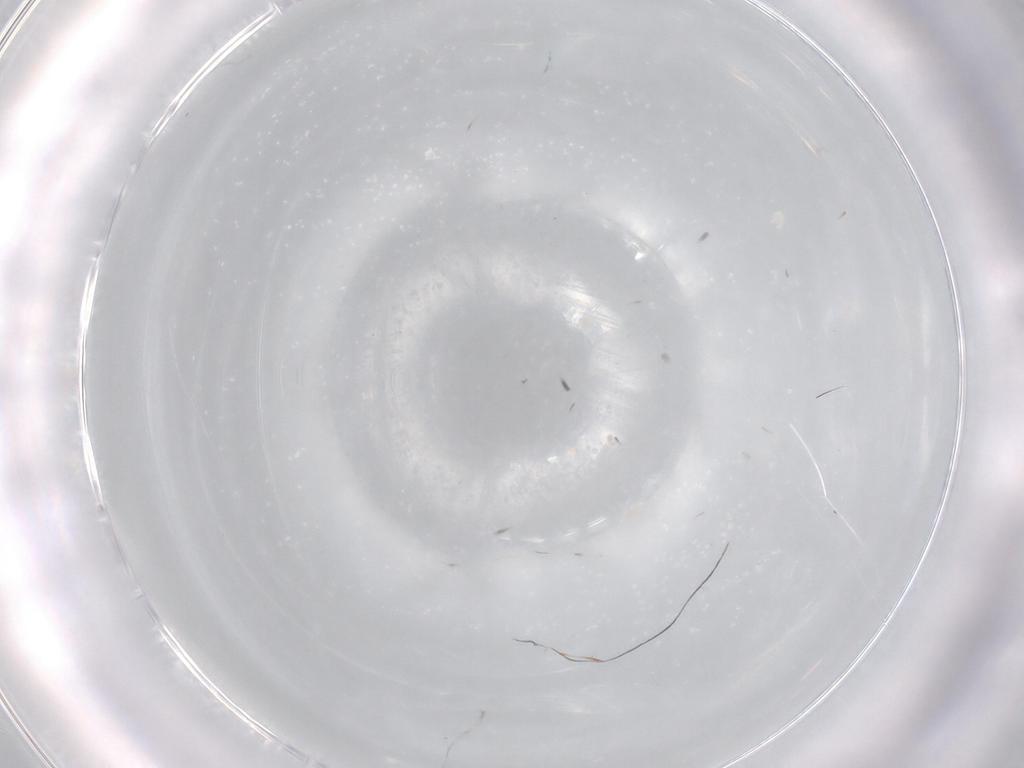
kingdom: Animalia
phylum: Arthropoda
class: Insecta
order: Hemiptera
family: Aleyrodidae
